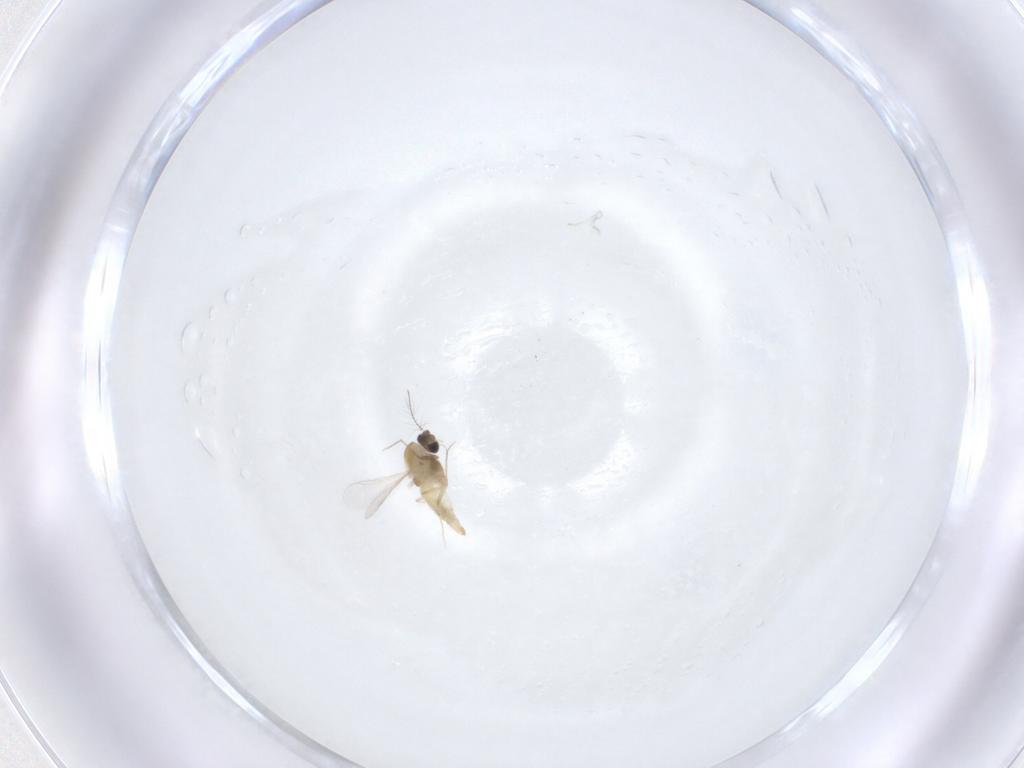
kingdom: Animalia
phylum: Arthropoda
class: Insecta
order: Diptera
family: Chironomidae
